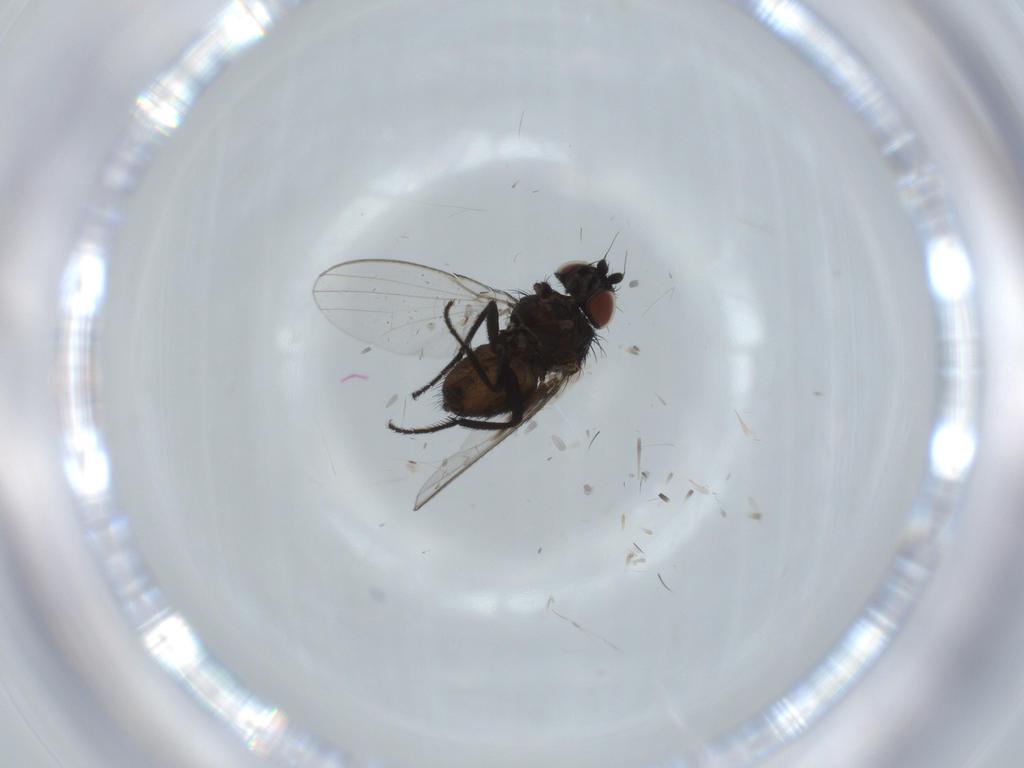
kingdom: Animalia
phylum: Arthropoda
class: Insecta
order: Diptera
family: Milichiidae
